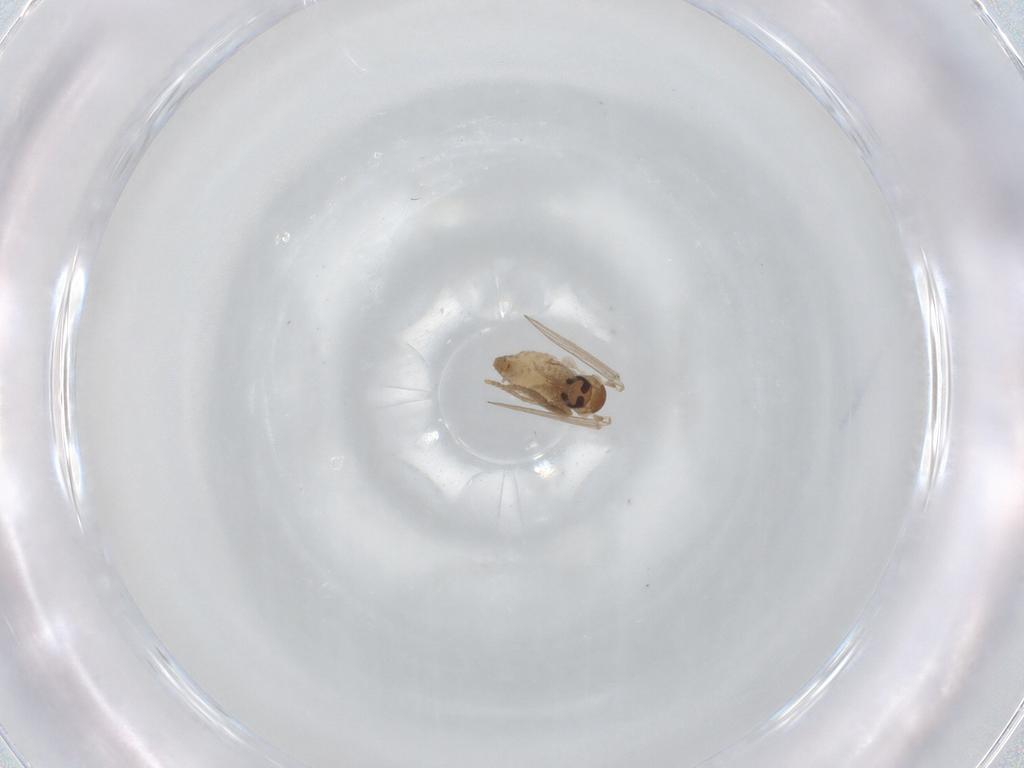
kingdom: Animalia
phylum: Arthropoda
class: Insecta
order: Diptera
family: Psychodidae
